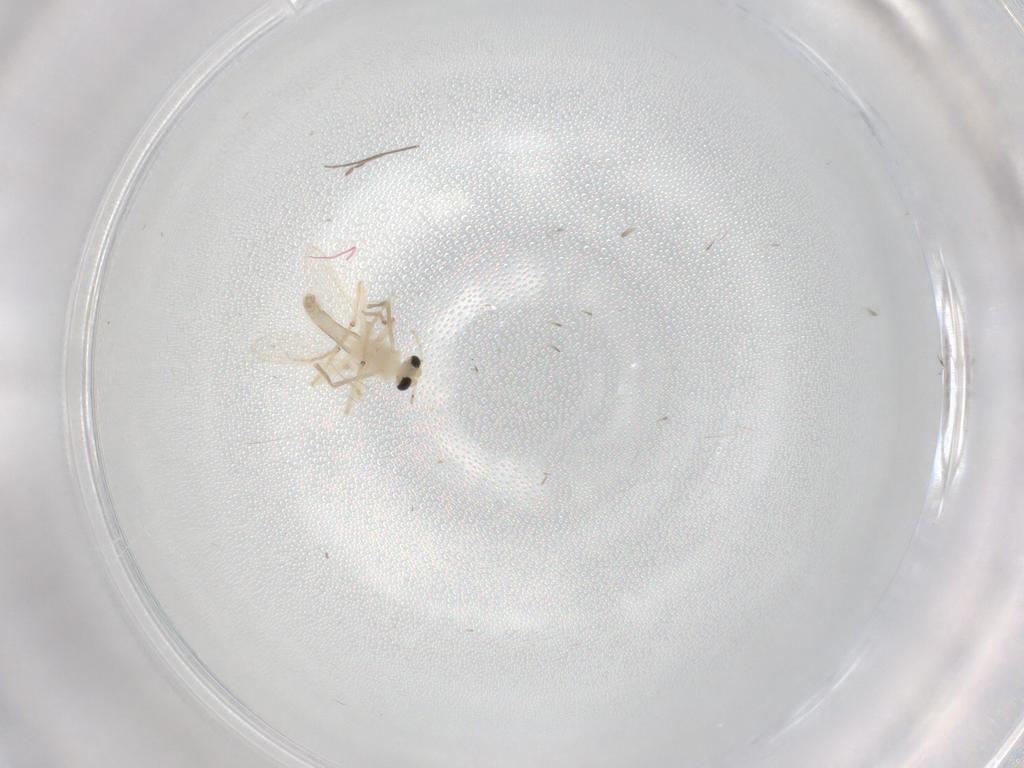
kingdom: Animalia
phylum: Arthropoda
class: Insecta
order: Diptera
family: Chironomidae
